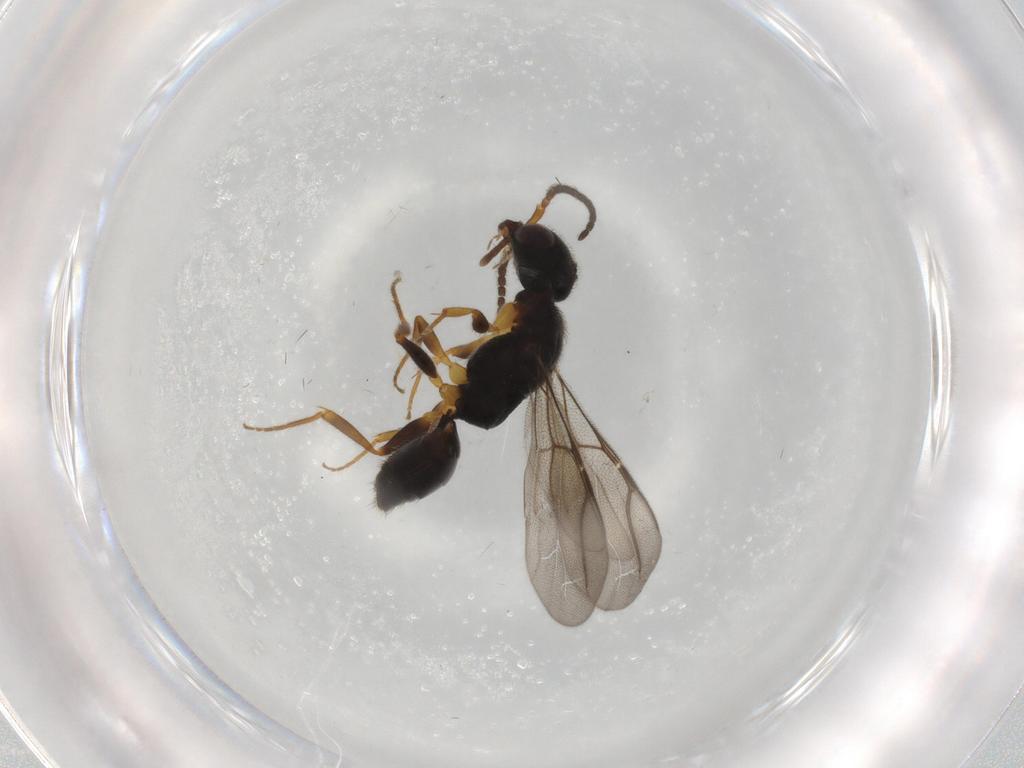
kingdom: Animalia
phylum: Arthropoda
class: Insecta
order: Hymenoptera
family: Bethylidae
